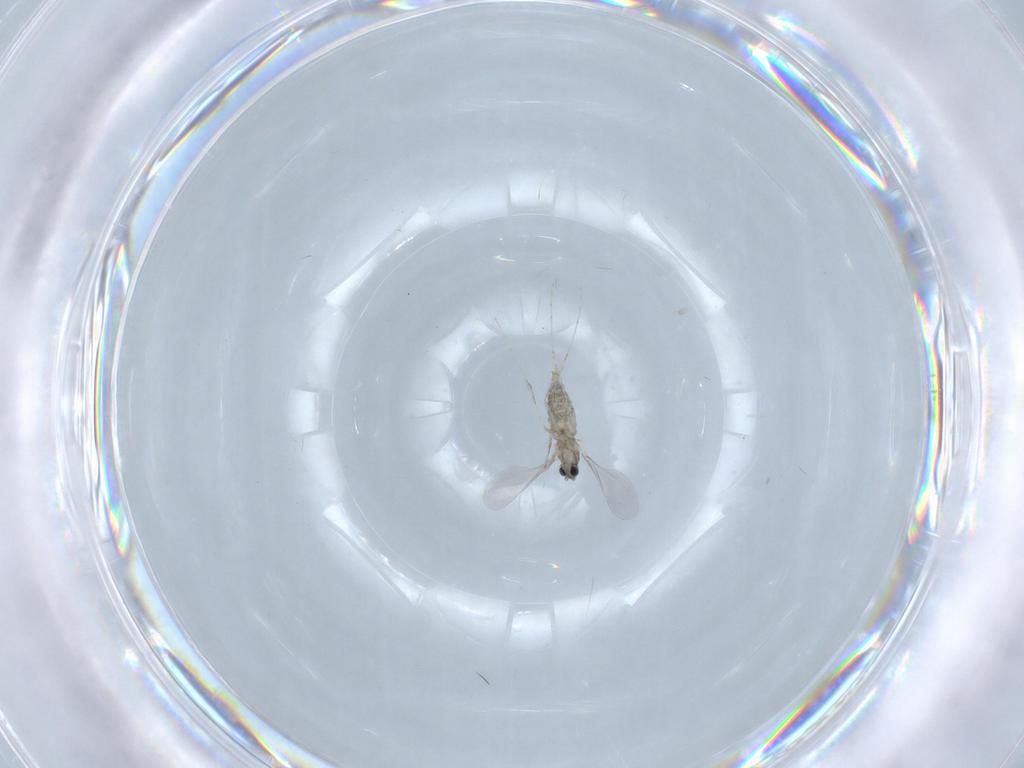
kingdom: Animalia
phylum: Arthropoda
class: Insecta
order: Diptera
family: Cecidomyiidae
